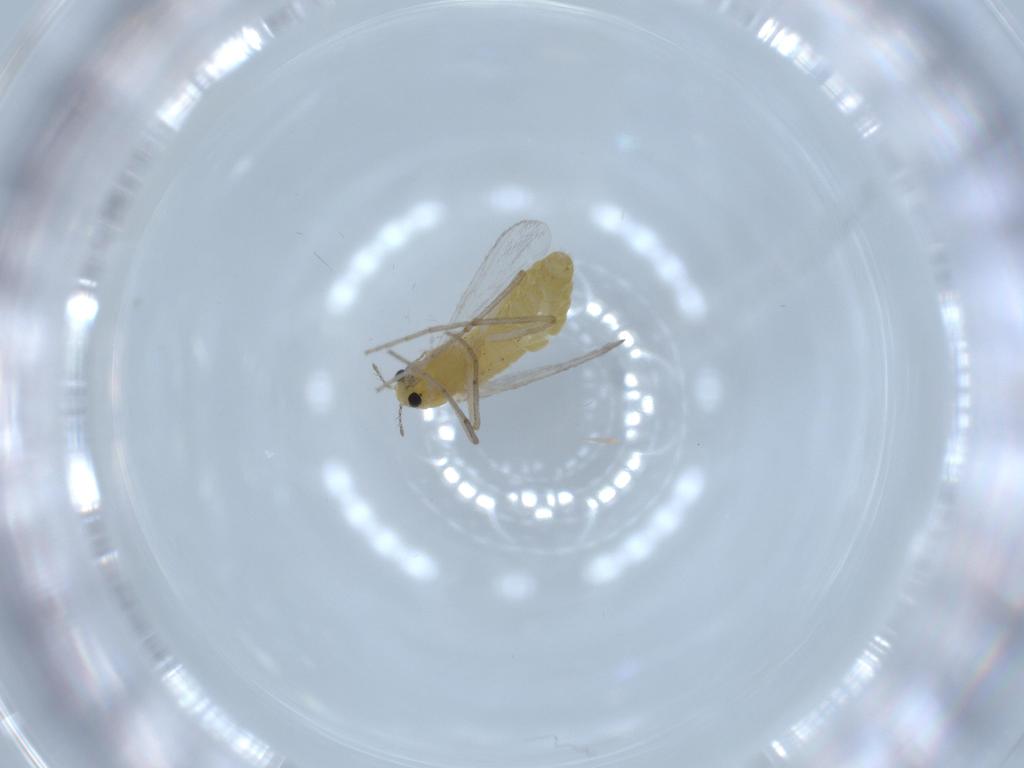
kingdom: Animalia
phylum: Arthropoda
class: Insecta
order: Diptera
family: Chironomidae
